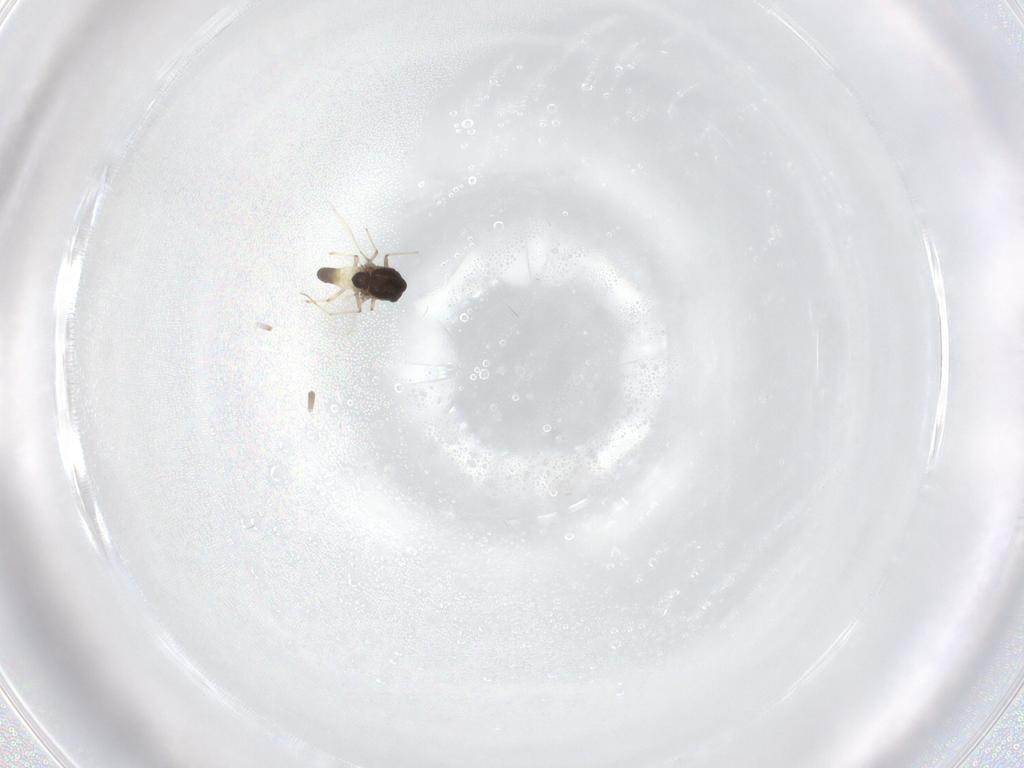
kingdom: Animalia
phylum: Arthropoda
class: Insecta
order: Diptera
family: Chironomidae
